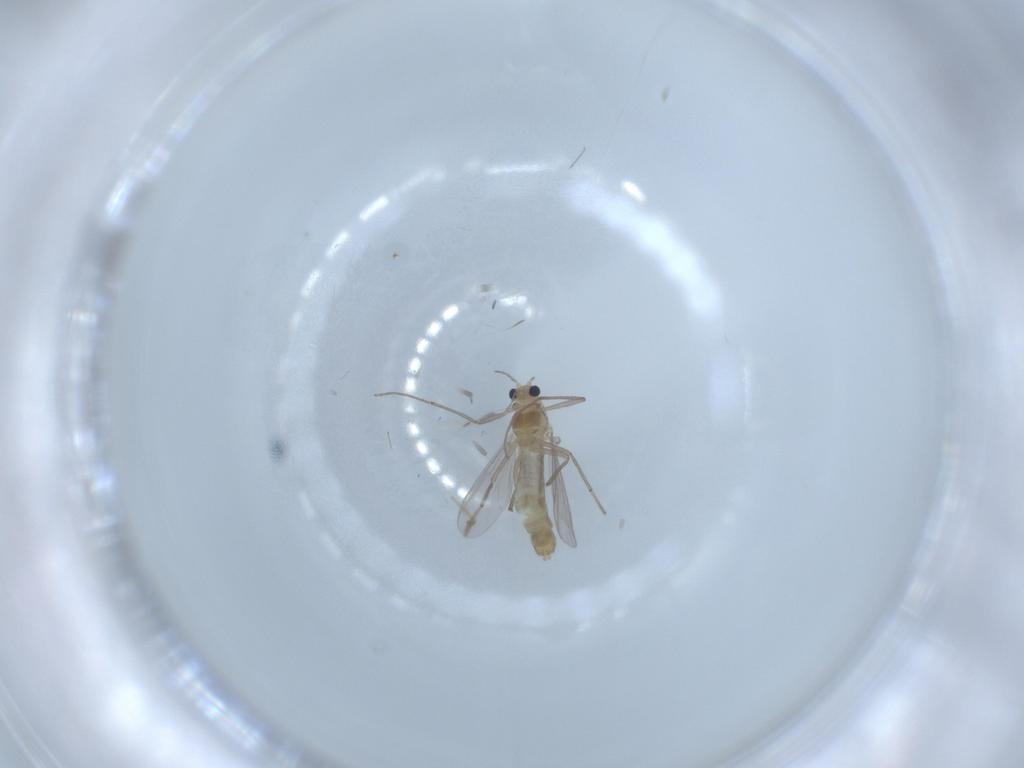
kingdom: Animalia
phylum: Arthropoda
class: Insecta
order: Diptera
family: Chironomidae
